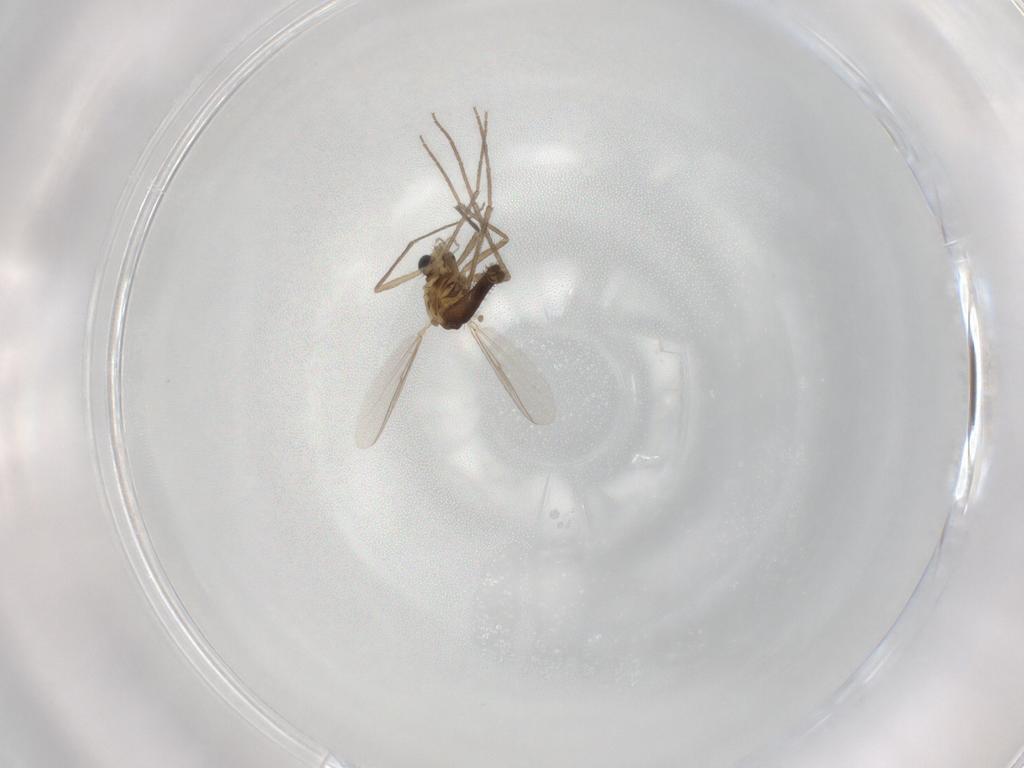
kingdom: Animalia
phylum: Arthropoda
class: Insecta
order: Diptera
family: Chironomidae
